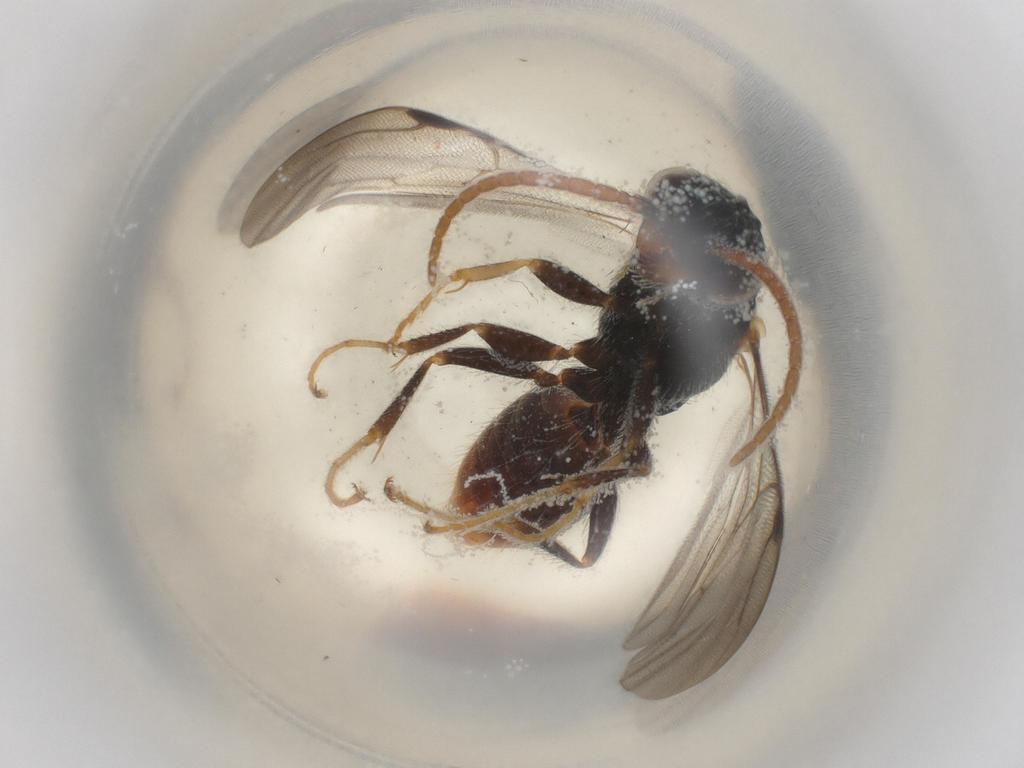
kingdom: Animalia
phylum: Arthropoda
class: Insecta
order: Hymenoptera
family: Bethylidae
